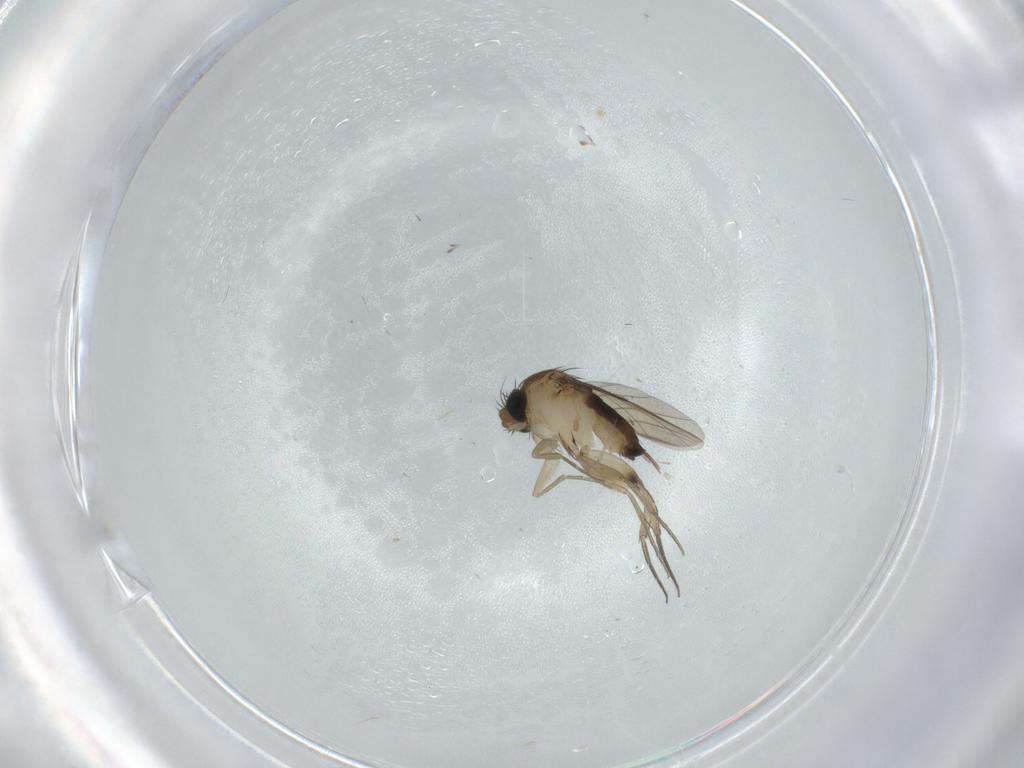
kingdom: Animalia
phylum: Arthropoda
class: Insecta
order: Diptera
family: Phoridae
